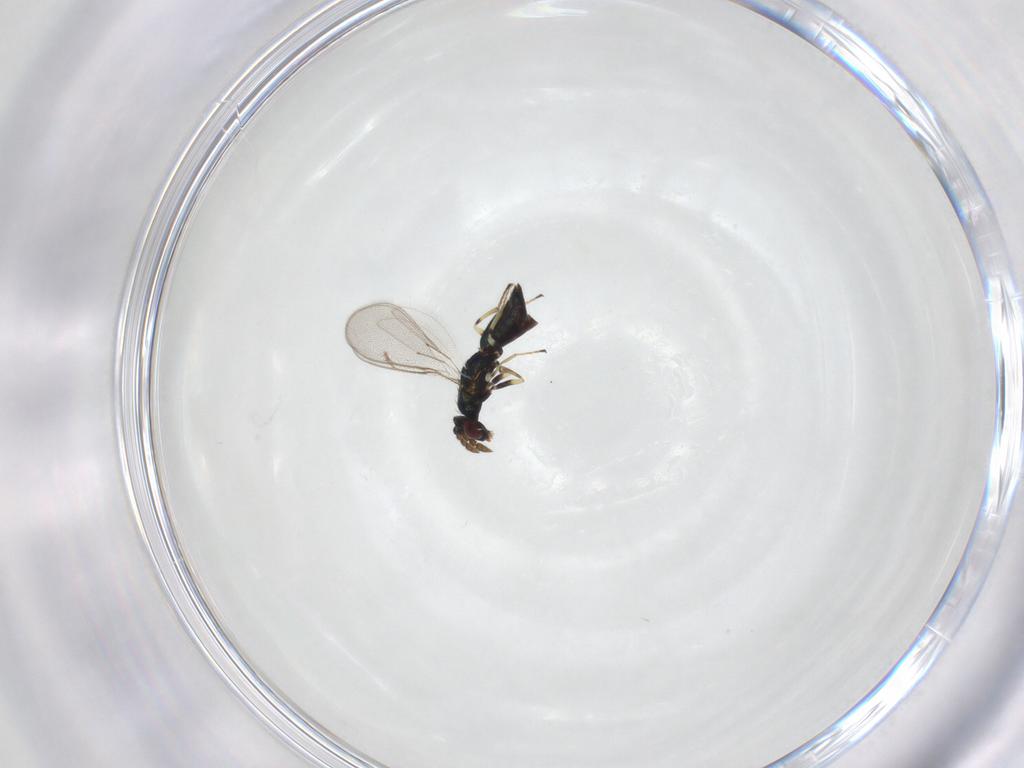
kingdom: Animalia
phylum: Arthropoda
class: Insecta
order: Hymenoptera
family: Eulophidae
